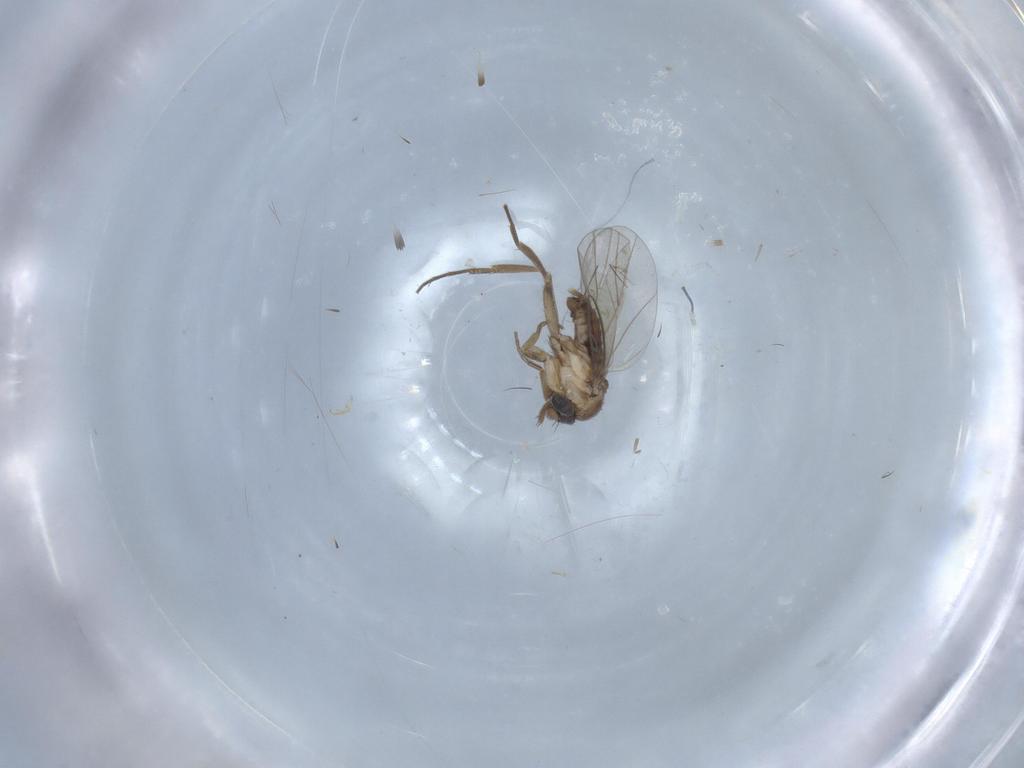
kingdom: Animalia
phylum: Arthropoda
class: Insecta
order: Diptera
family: Phoridae
